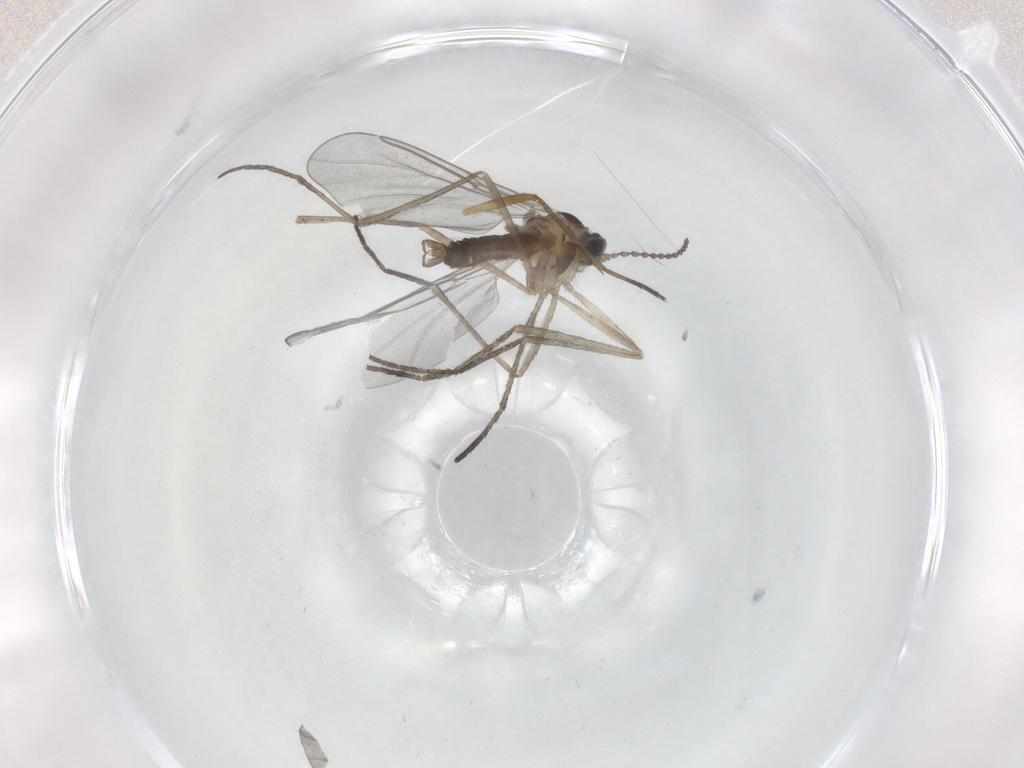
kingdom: Animalia
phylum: Arthropoda
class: Insecta
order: Diptera
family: Cecidomyiidae
